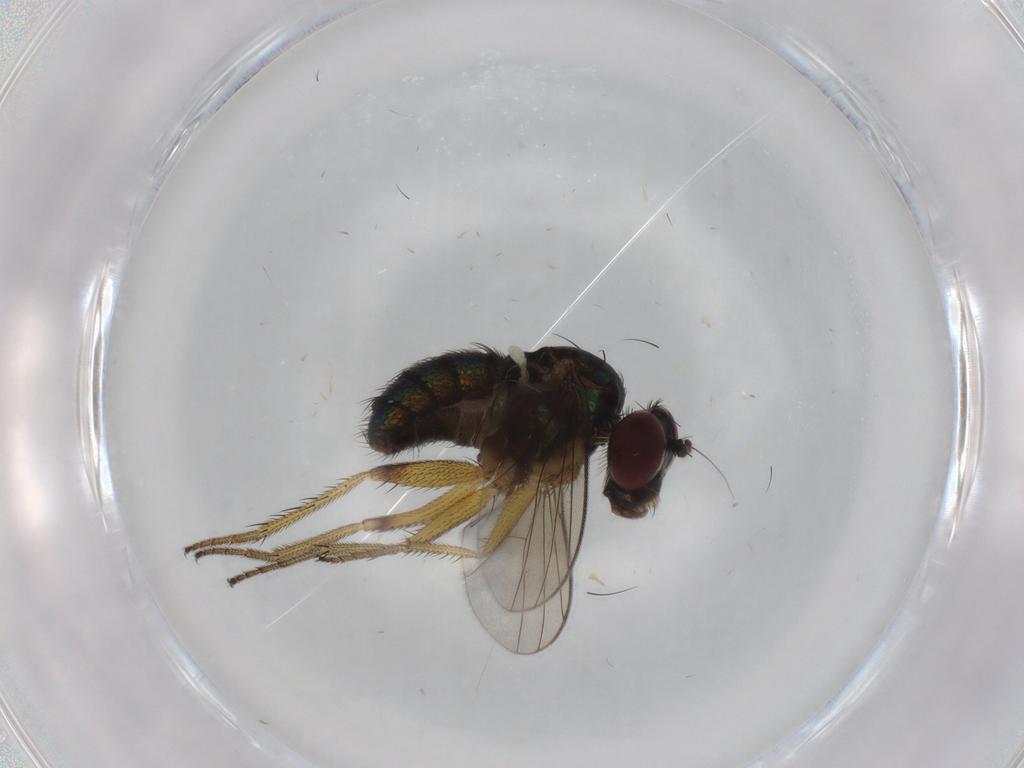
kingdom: Animalia
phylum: Arthropoda
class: Insecta
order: Diptera
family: Dolichopodidae
